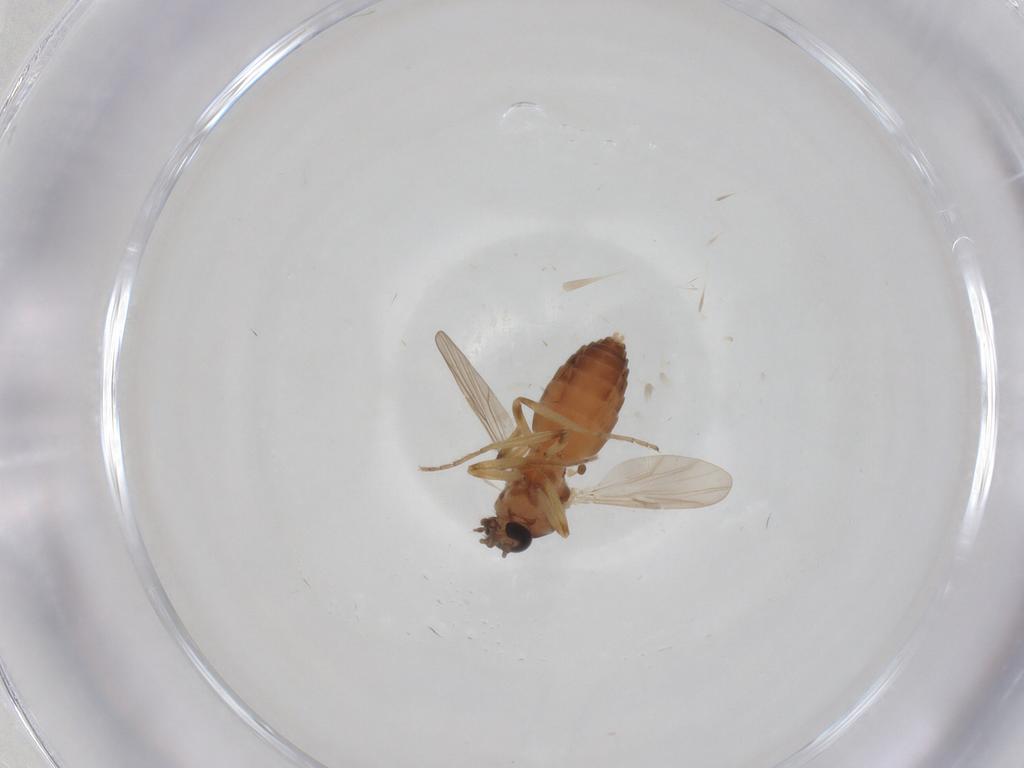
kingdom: Animalia
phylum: Arthropoda
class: Insecta
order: Diptera
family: Ceratopogonidae
